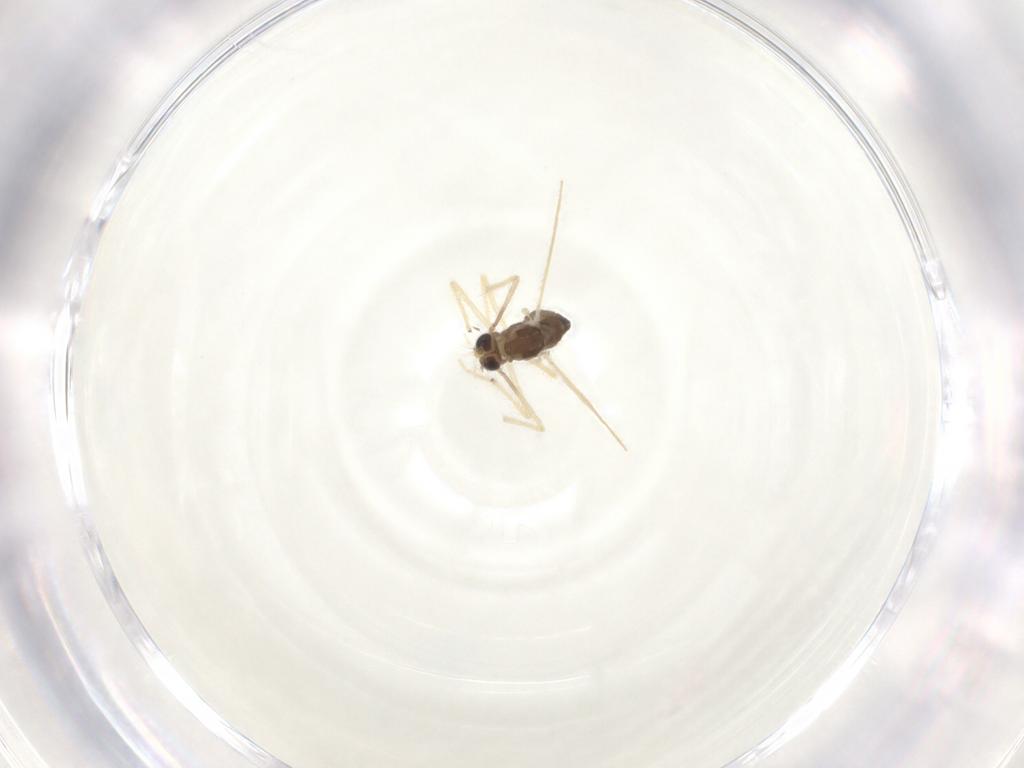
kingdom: Animalia
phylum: Arthropoda
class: Insecta
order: Diptera
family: Chironomidae
